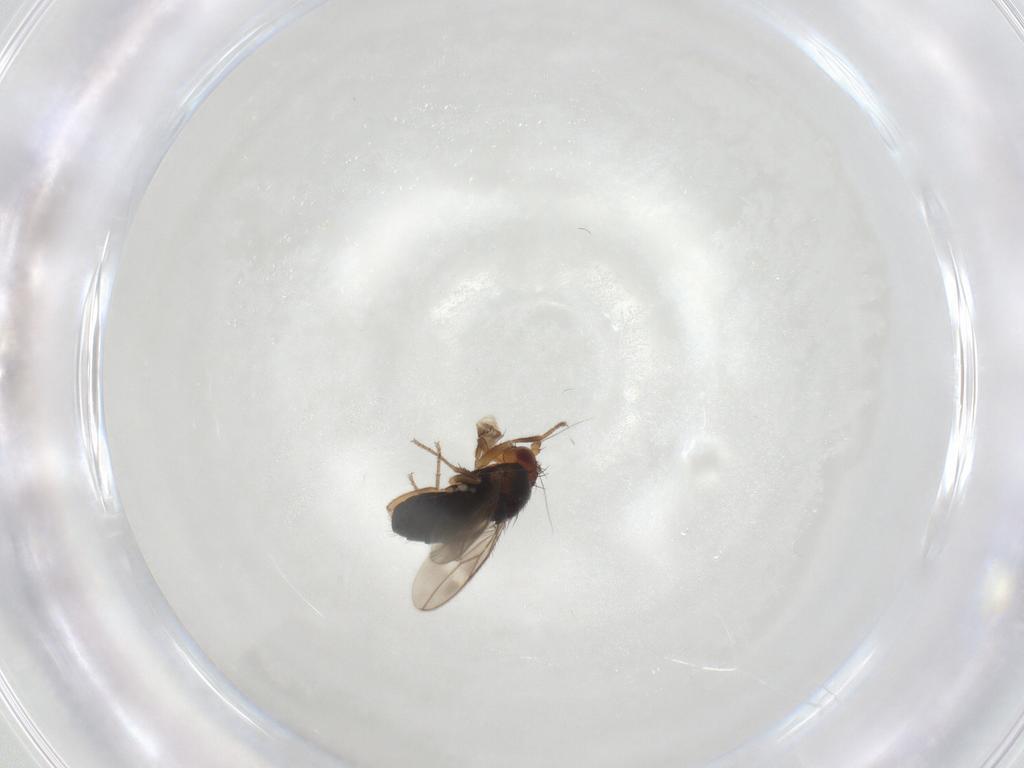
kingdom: Animalia
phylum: Arthropoda
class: Insecta
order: Diptera
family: Sphaeroceridae
